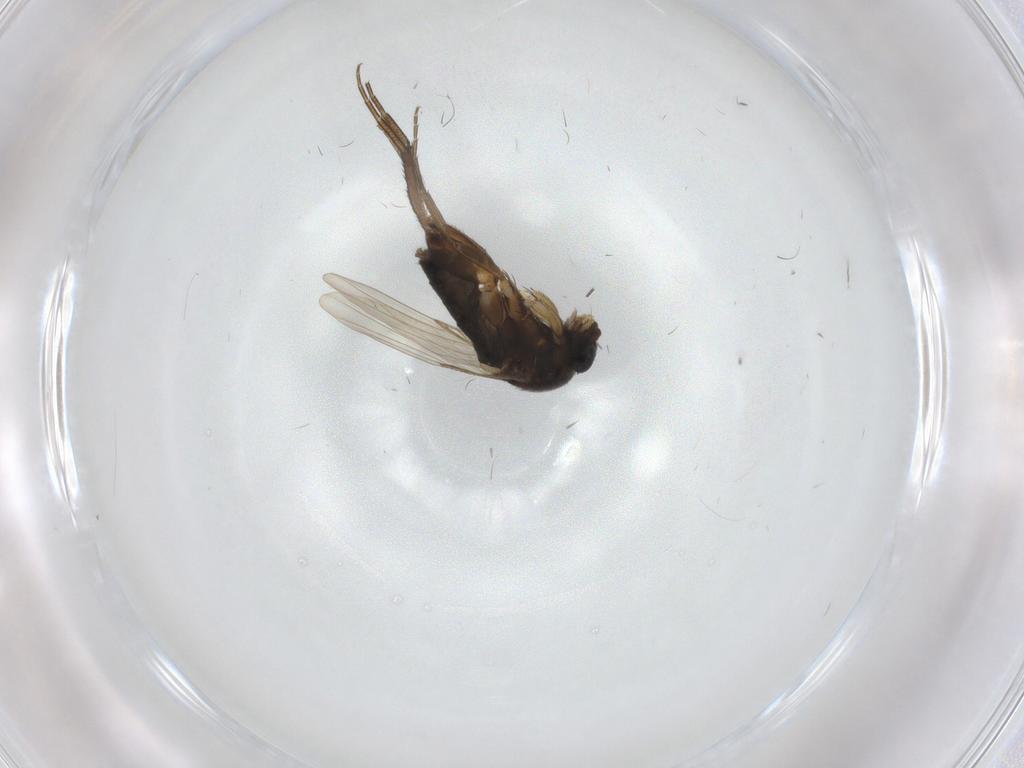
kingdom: Animalia
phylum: Arthropoda
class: Insecta
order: Diptera
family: Phoridae
